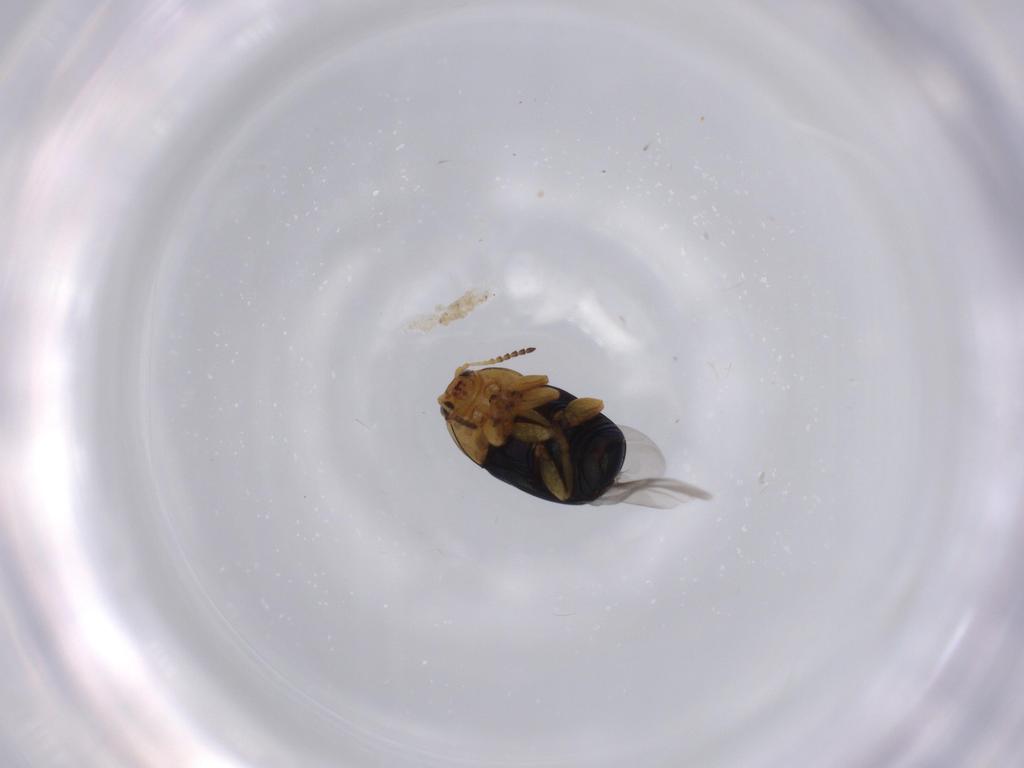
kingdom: Animalia
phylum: Arthropoda
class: Insecta
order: Coleoptera
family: Chrysomelidae
